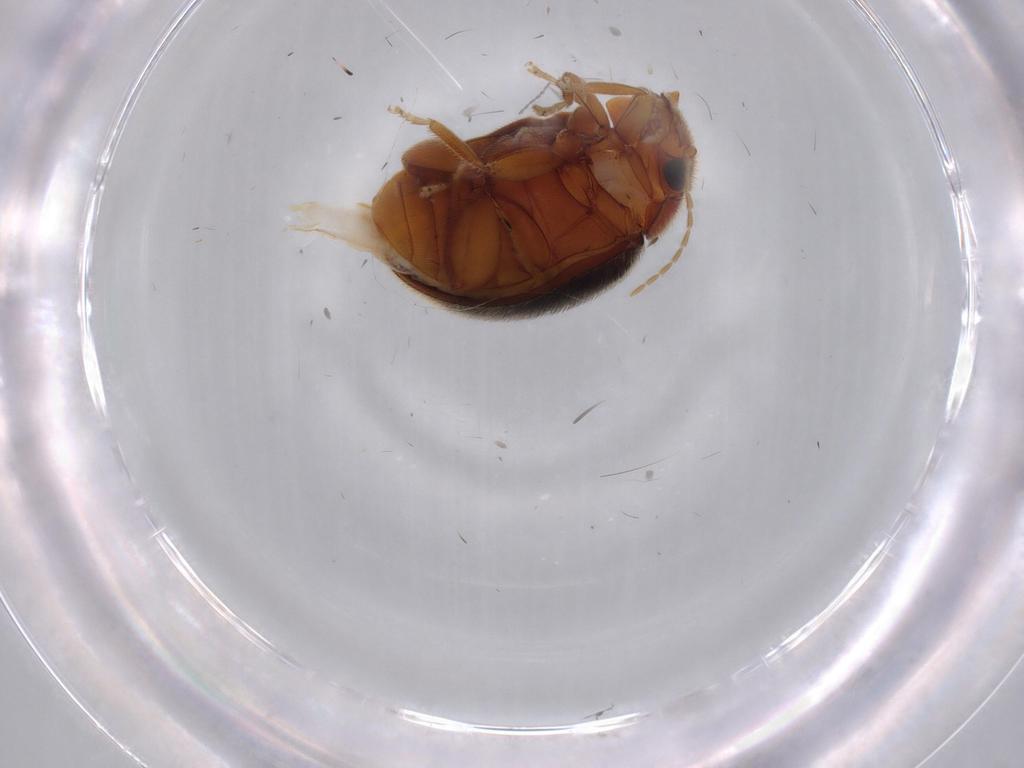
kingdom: Animalia
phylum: Arthropoda
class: Insecta
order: Coleoptera
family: Scirtidae
